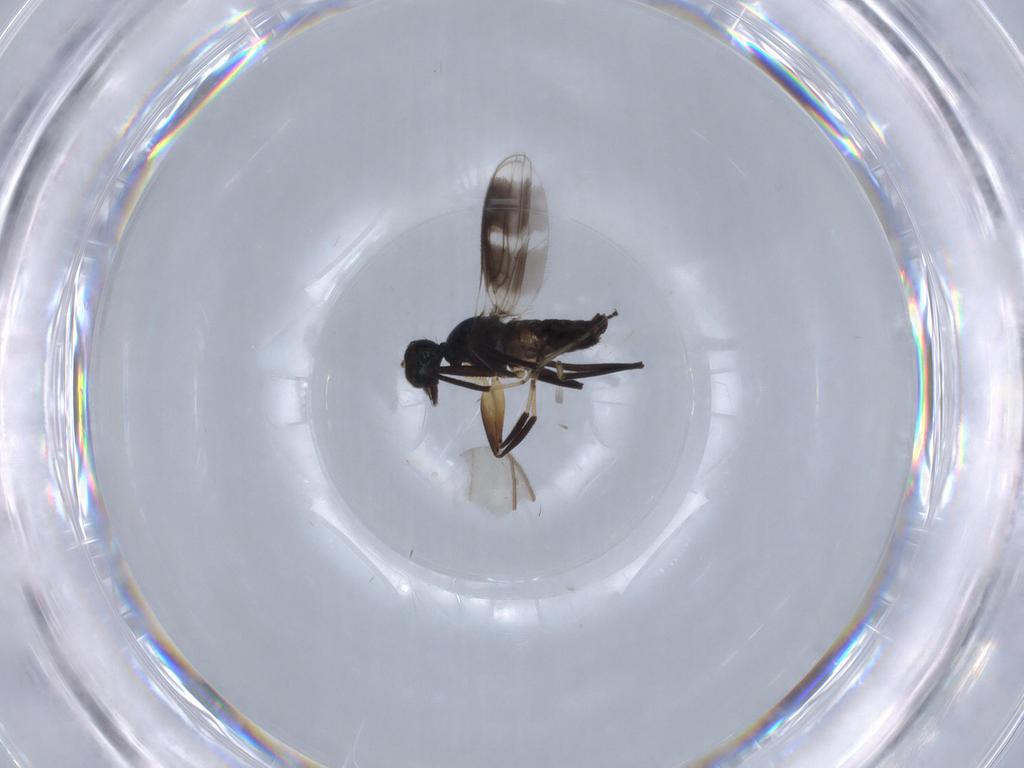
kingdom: Animalia
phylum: Arthropoda
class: Insecta
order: Diptera
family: Hybotidae
